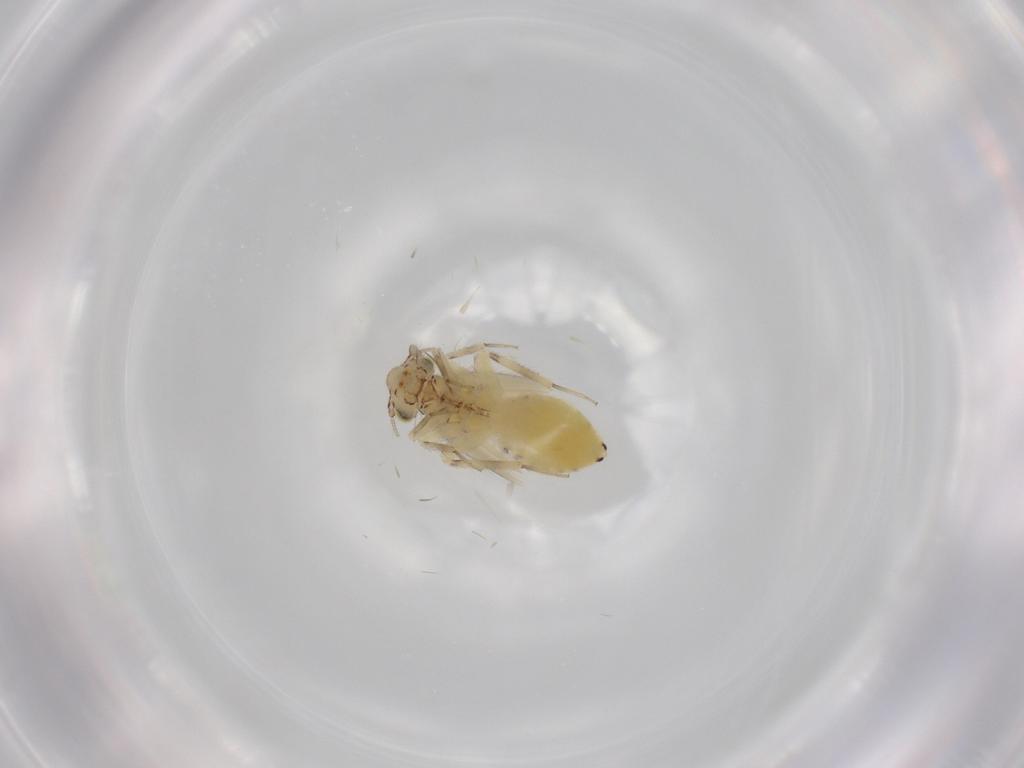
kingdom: Animalia
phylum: Arthropoda
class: Insecta
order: Psocodea
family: Lepidopsocidae
